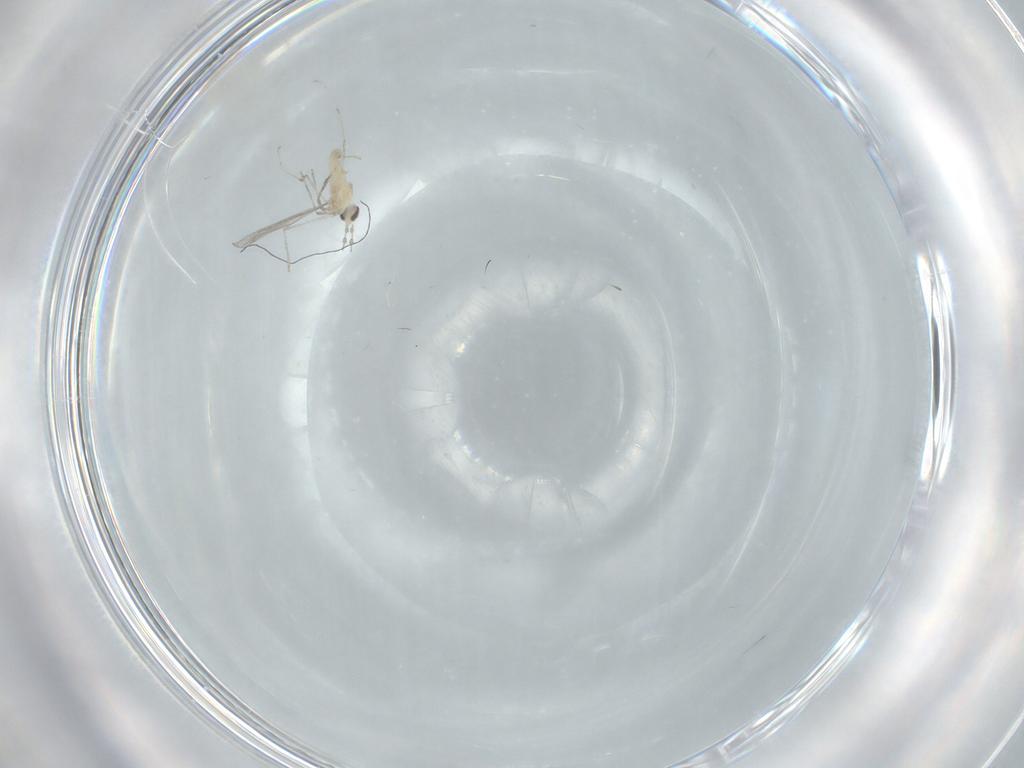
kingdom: Animalia
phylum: Arthropoda
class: Insecta
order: Diptera
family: Cecidomyiidae
